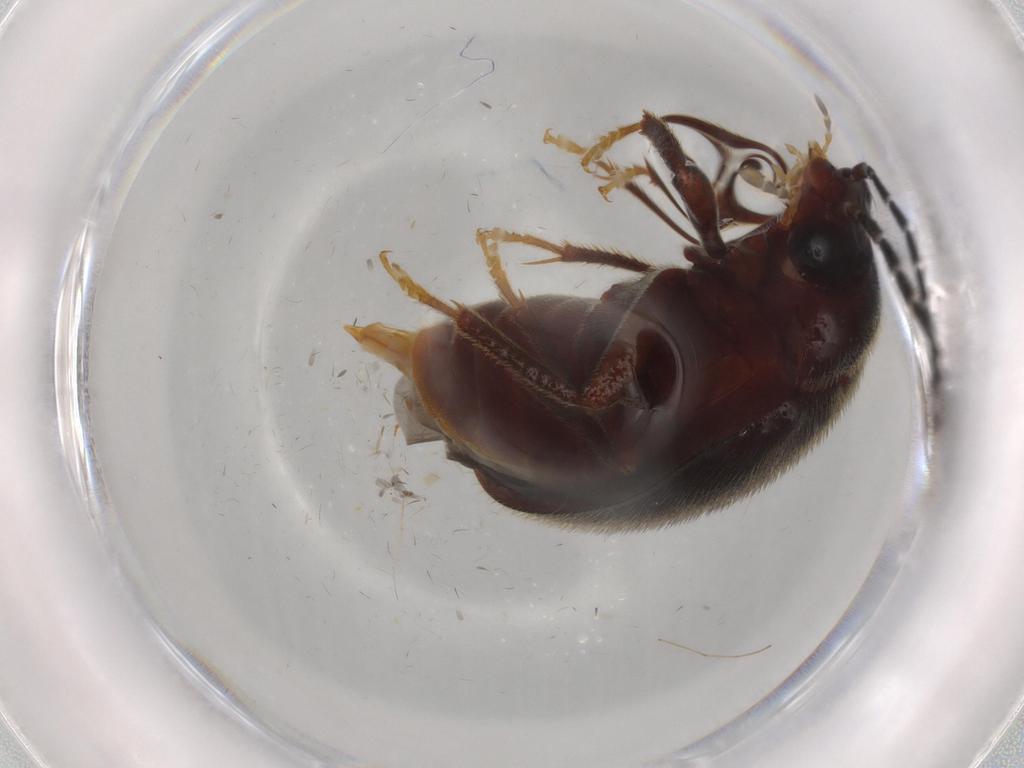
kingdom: Animalia
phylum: Arthropoda
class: Insecta
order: Coleoptera
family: Ptilodactylidae
